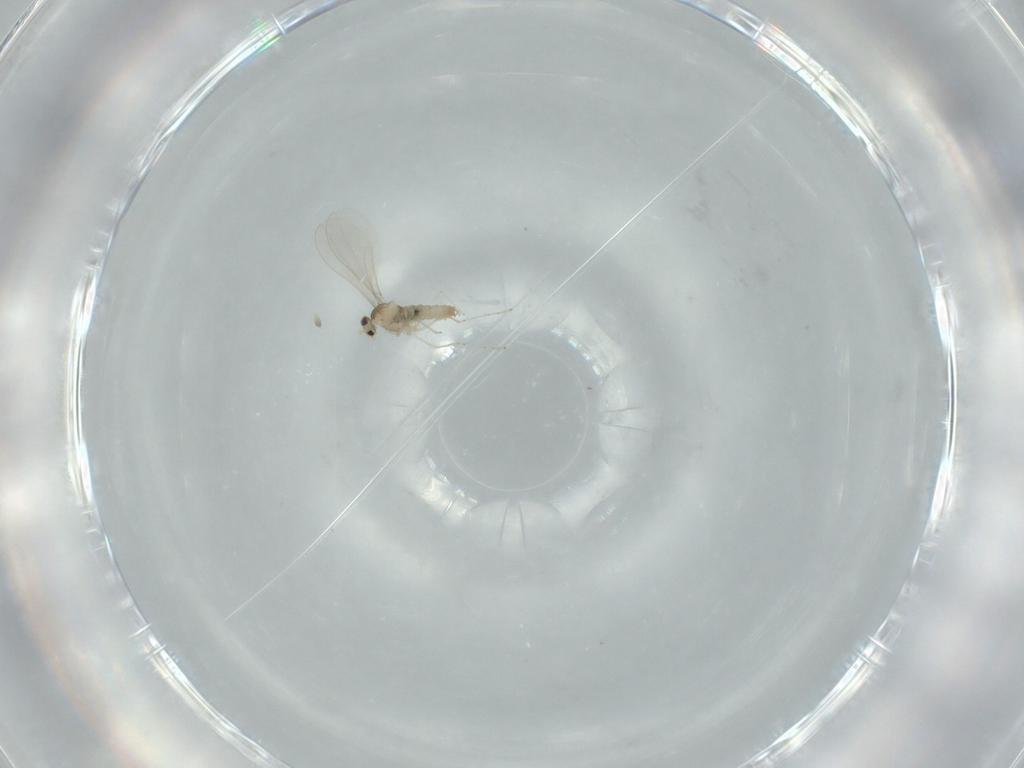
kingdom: Animalia
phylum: Arthropoda
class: Insecta
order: Diptera
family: Cecidomyiidae
